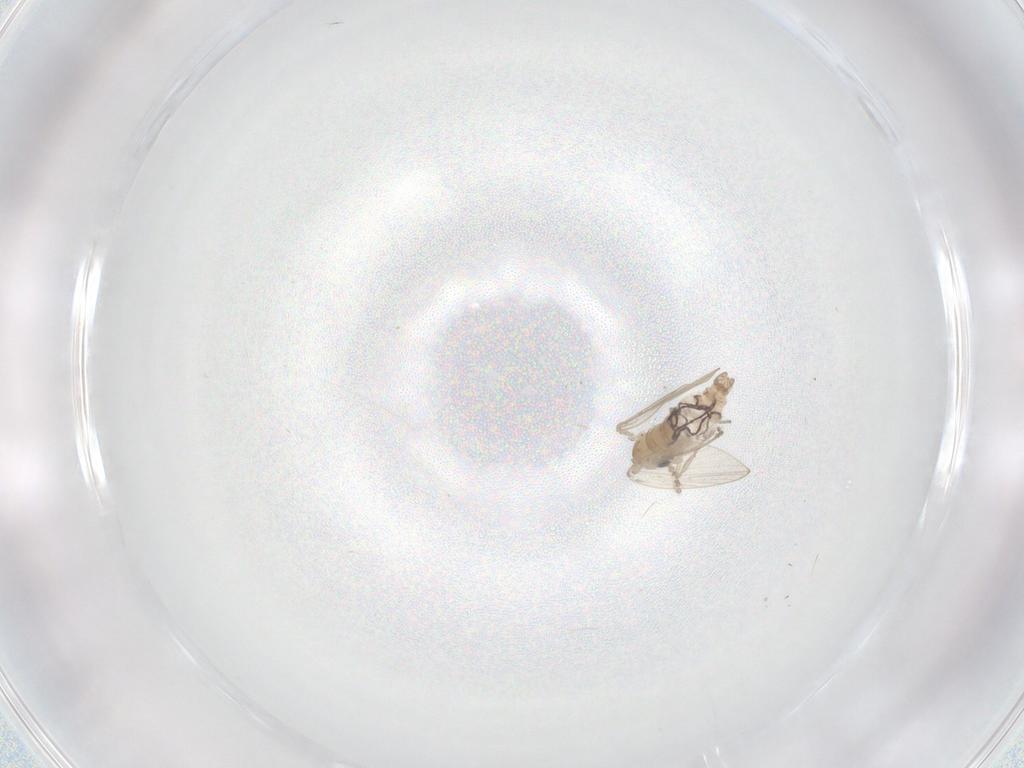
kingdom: Animalia
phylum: Arthropoda
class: Insecta
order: Diptera
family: Psychodidae
